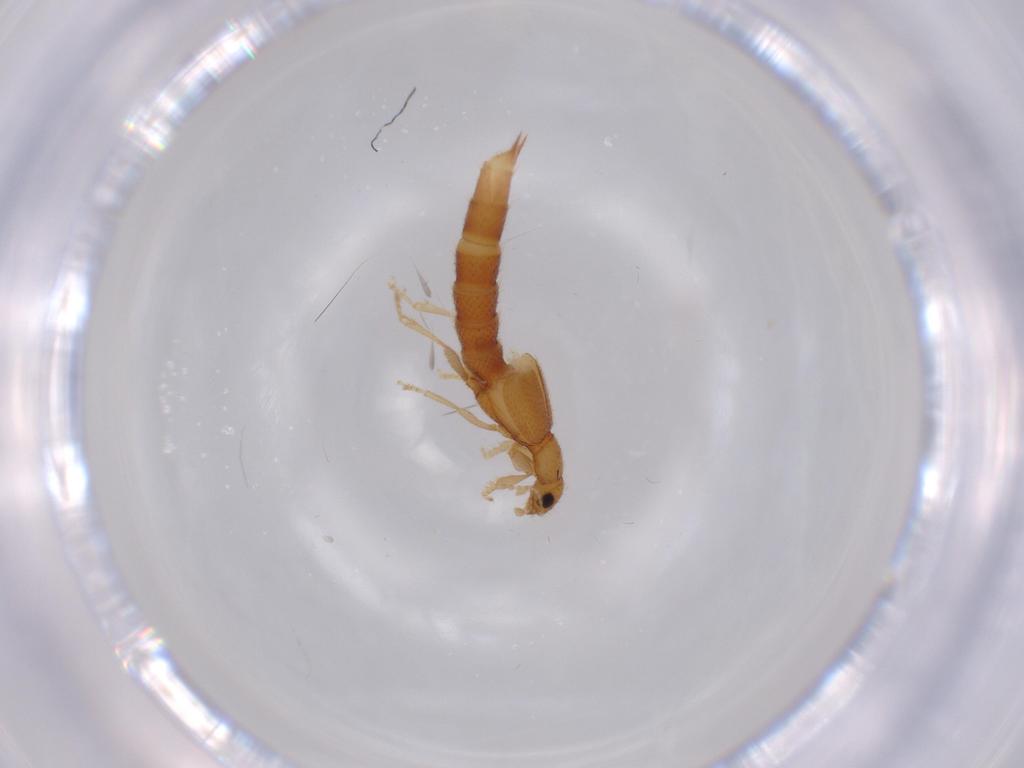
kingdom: Animalia
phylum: Arthropoda
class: Insecta
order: Coleoptera
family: Staphylinidae
